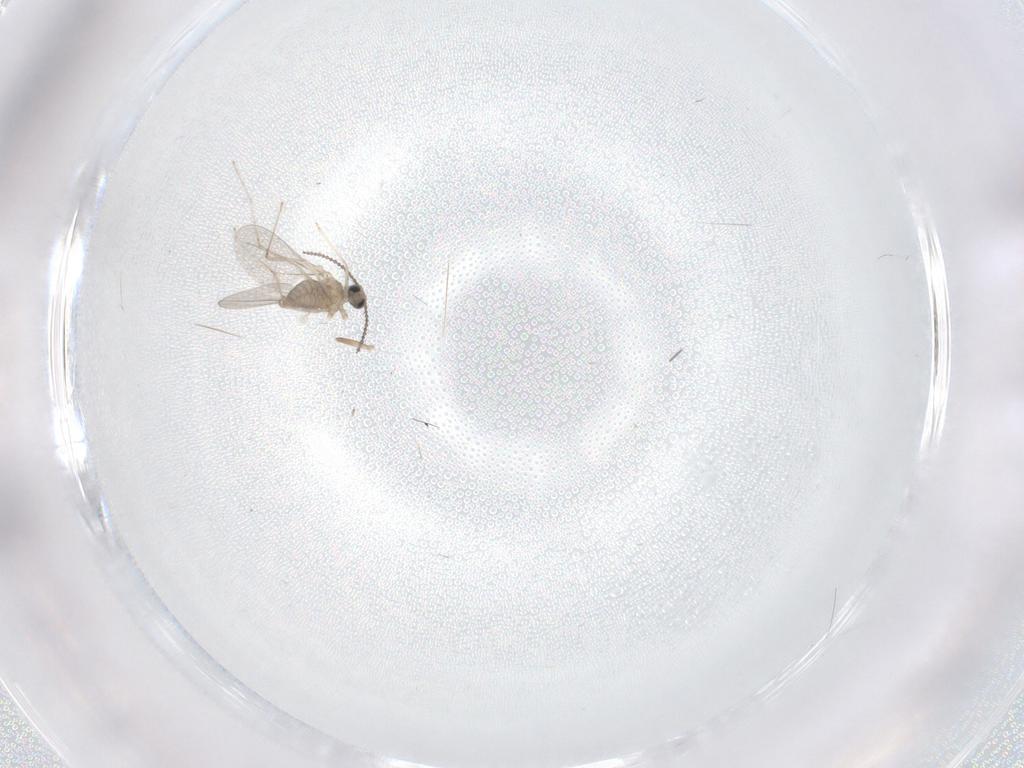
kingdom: Animalia
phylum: Arthropoda
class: Insecta
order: Diptera
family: Cecidomyiidae
